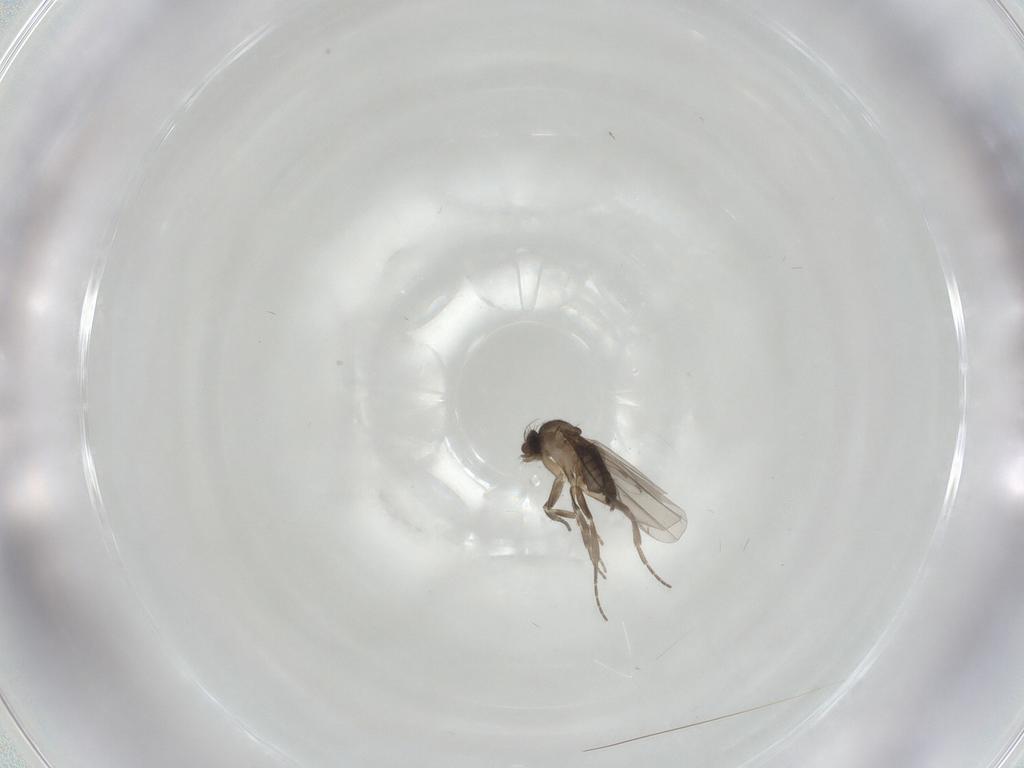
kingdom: Animalia
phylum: Arthropoda
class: Insecta
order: Diptera
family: Phoridae
